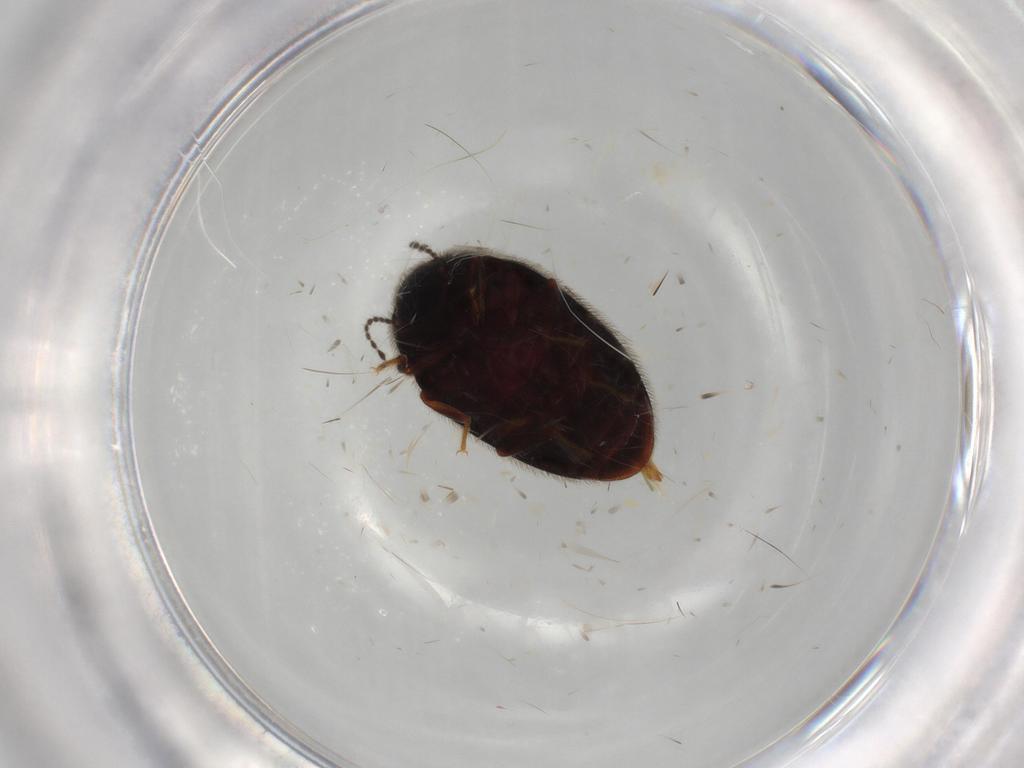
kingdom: Animalia
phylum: Arthropoda
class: Insecta
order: Coleoptera
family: Limnichidae
